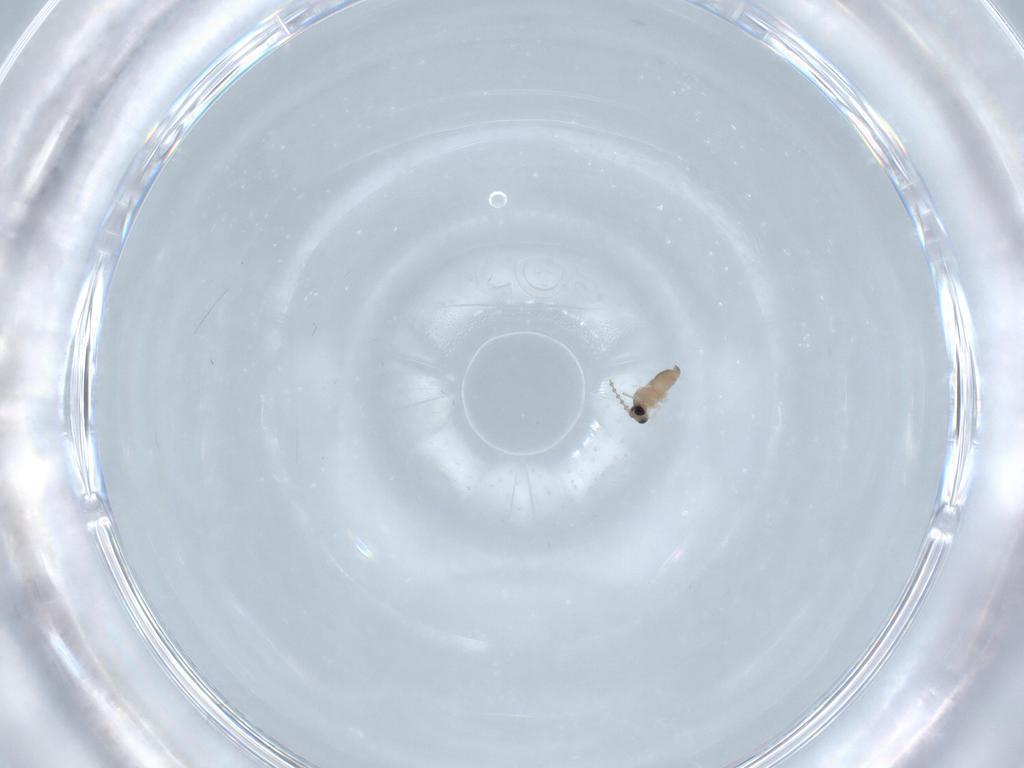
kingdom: Animalia
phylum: Arthropoda
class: Insecta
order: Diptera
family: Cecidomyiidae
